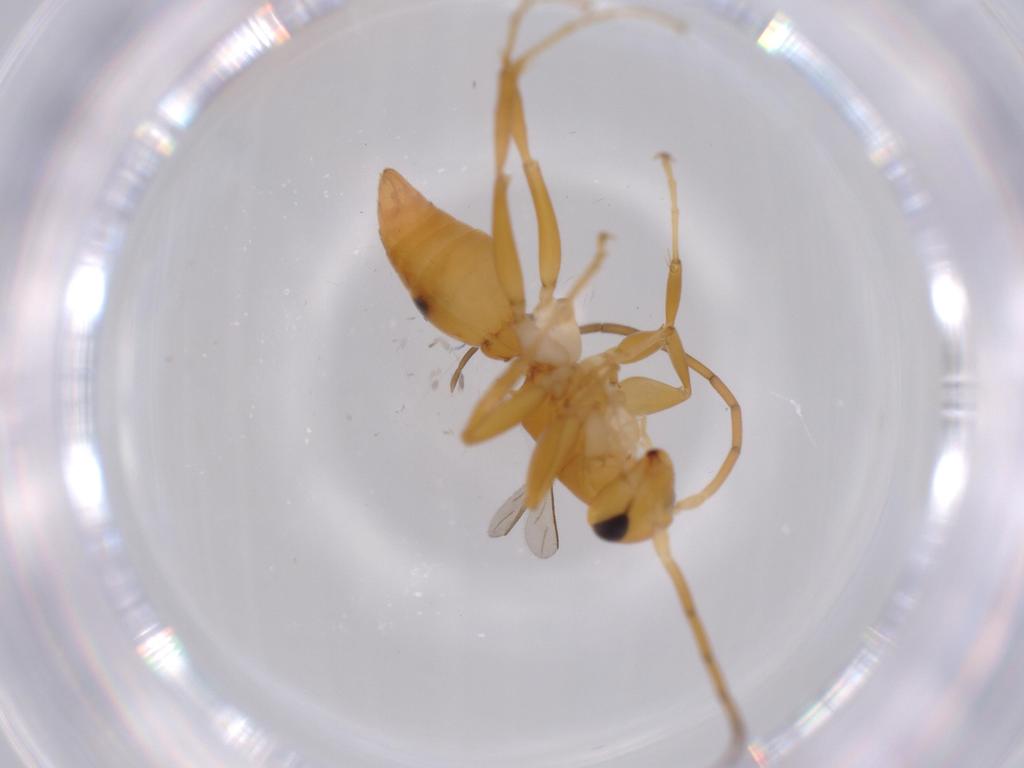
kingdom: Animalia
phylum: Arthropoda
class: Insecta
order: Hymenoptera
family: Rhopalosomatidae
